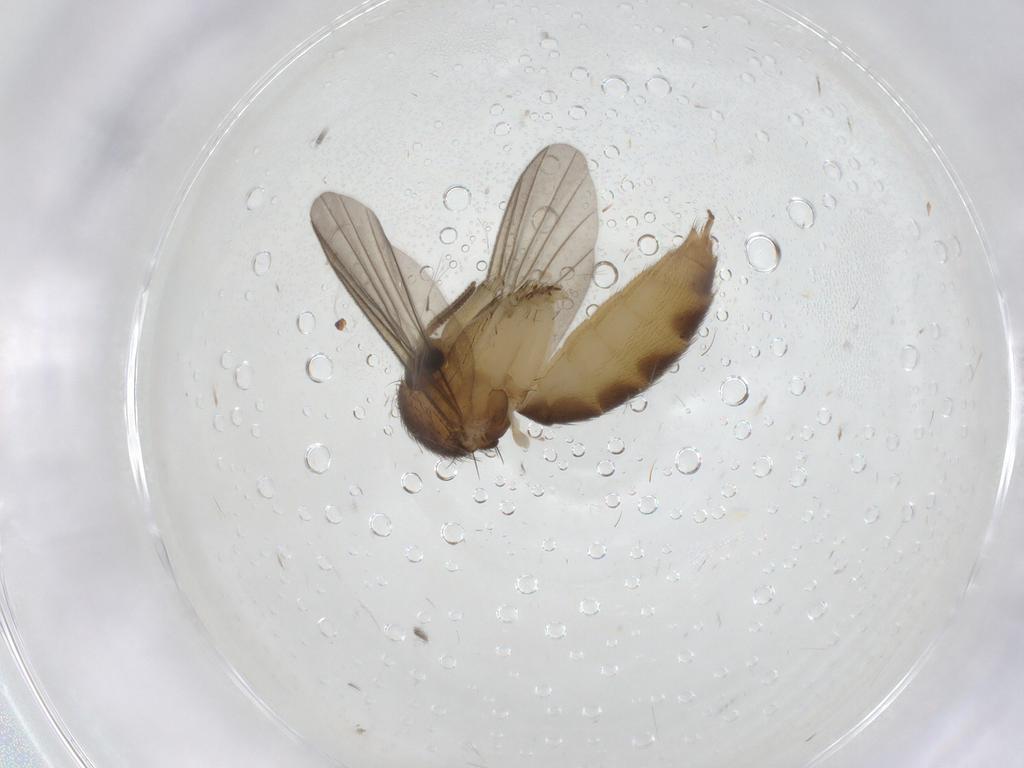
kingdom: Animalia
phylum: Arthropoda
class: Insecta
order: Diptera
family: Mycetophilidae
